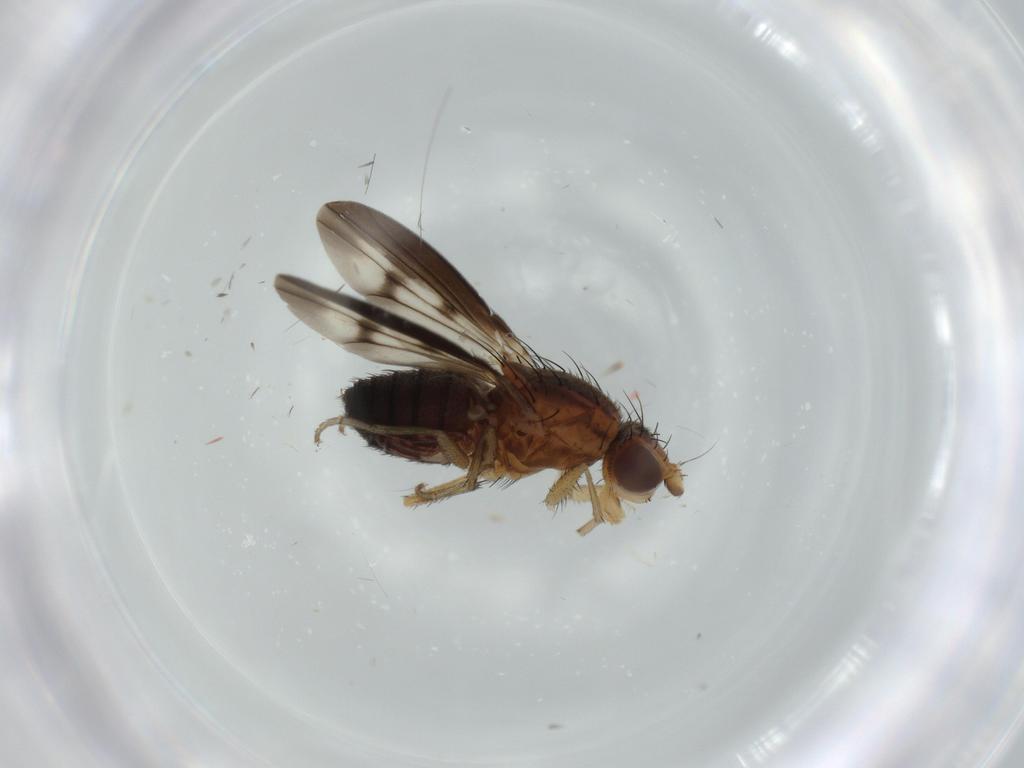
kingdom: Animalia
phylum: Arthropoda
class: Insecta
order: Diptera
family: Heleomyzidae
